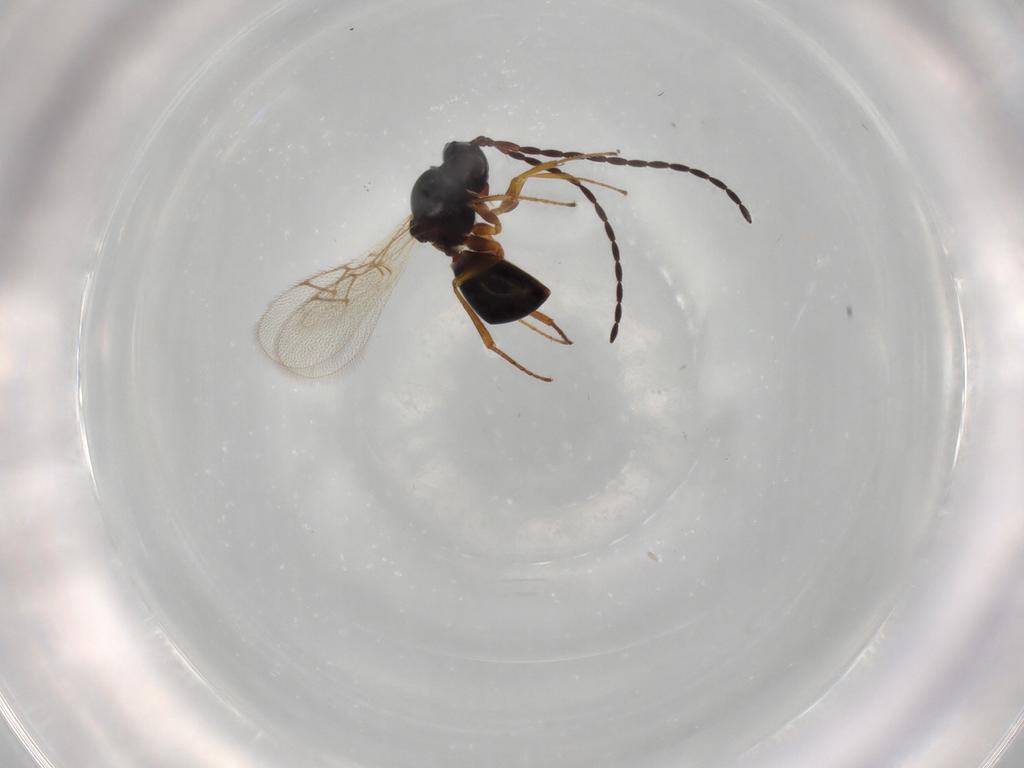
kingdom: Animalia
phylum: Arthropoda
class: Insecta
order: Hymenoptera
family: Figitidae
